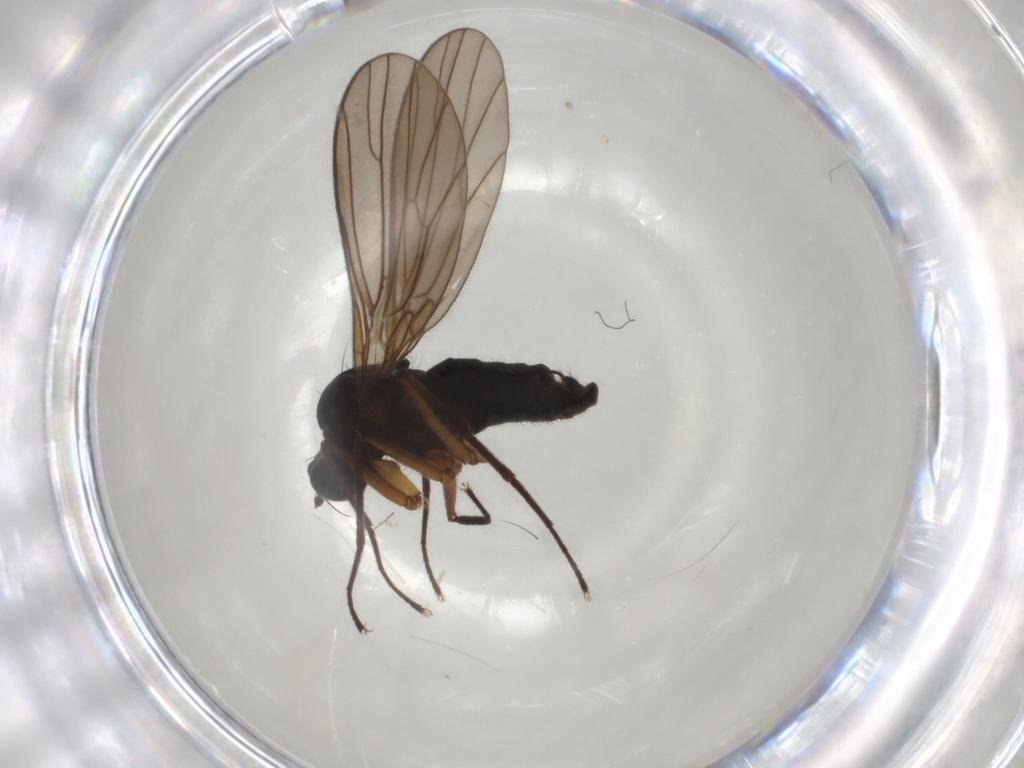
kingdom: Animalia
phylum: Arthropoda
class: Insecta
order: Diptera
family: Empididae
